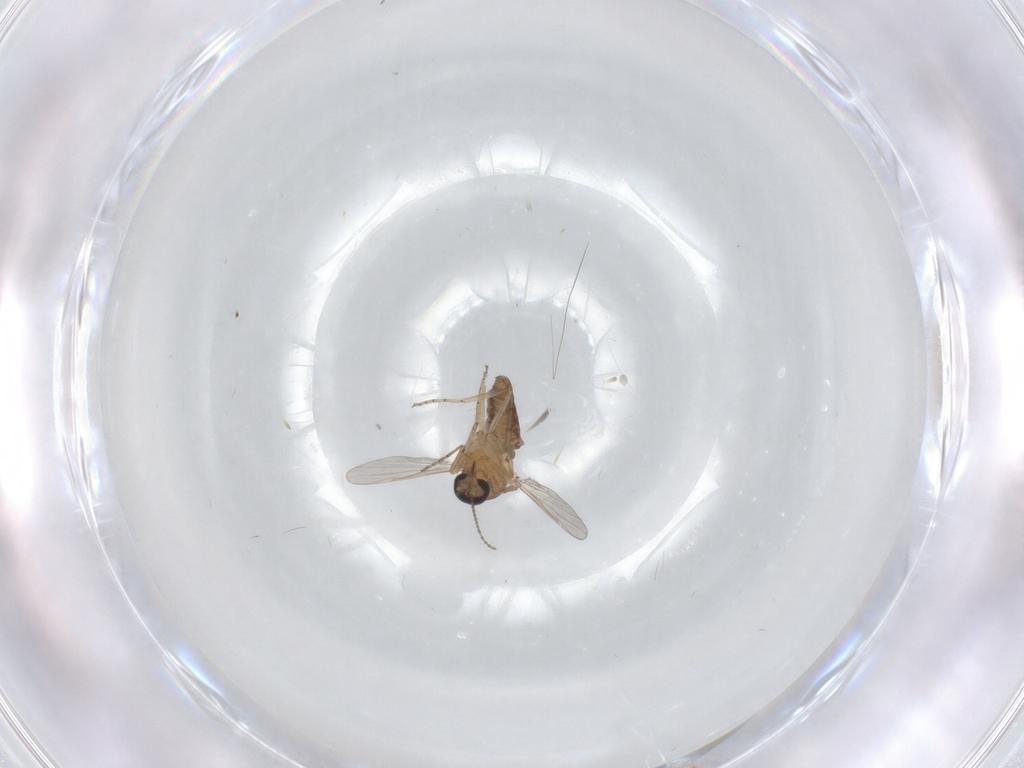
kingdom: Animalia
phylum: Arthropoda
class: Insecta
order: Diptera
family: Ceratopogonidae
